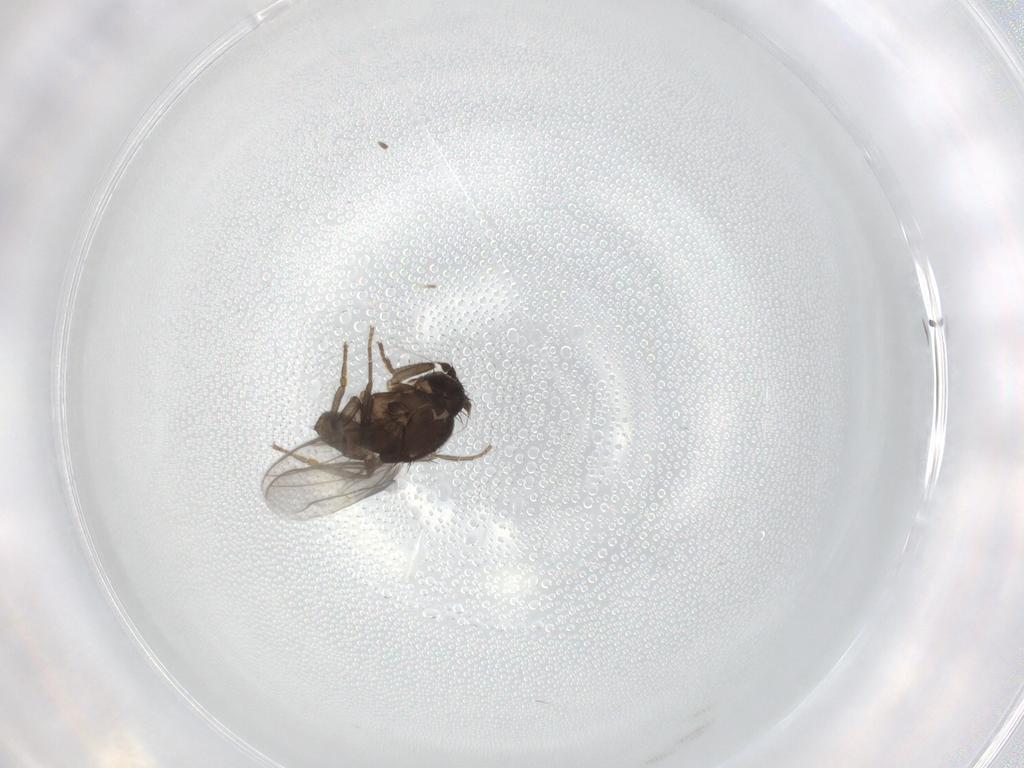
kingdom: Animalia
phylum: Arthropoda
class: Insecta
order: Diptera
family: Sphaeroceridae
